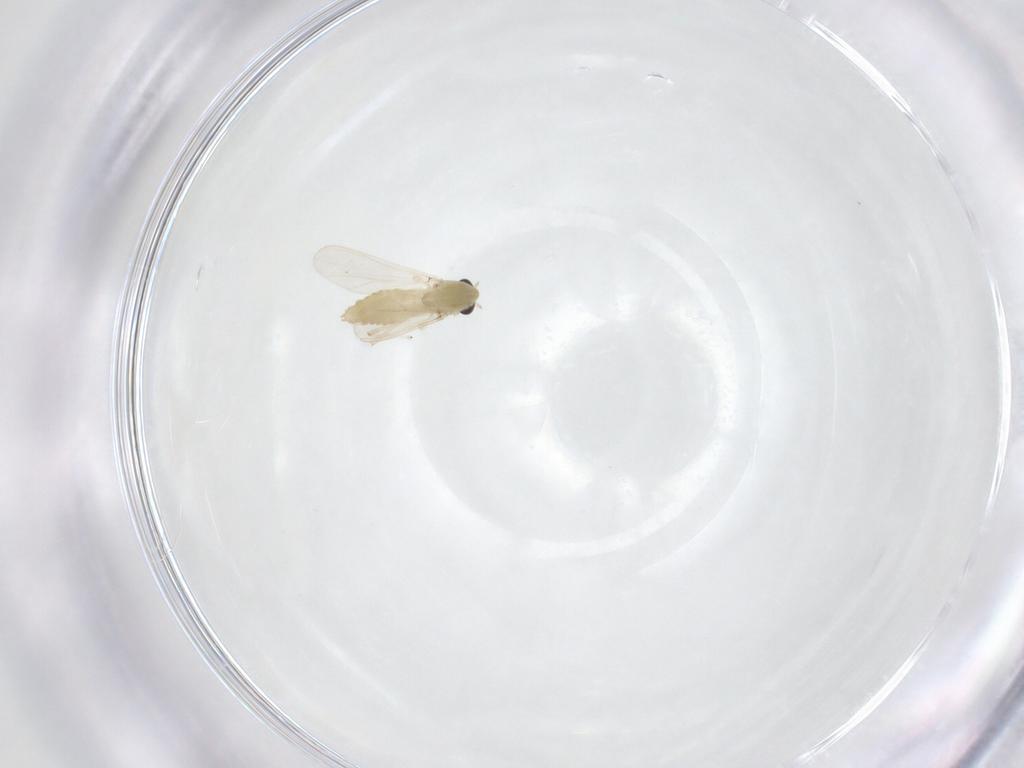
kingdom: Animalia
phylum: Arthropoda
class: Insecta
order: Diptera
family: Chironomidae
